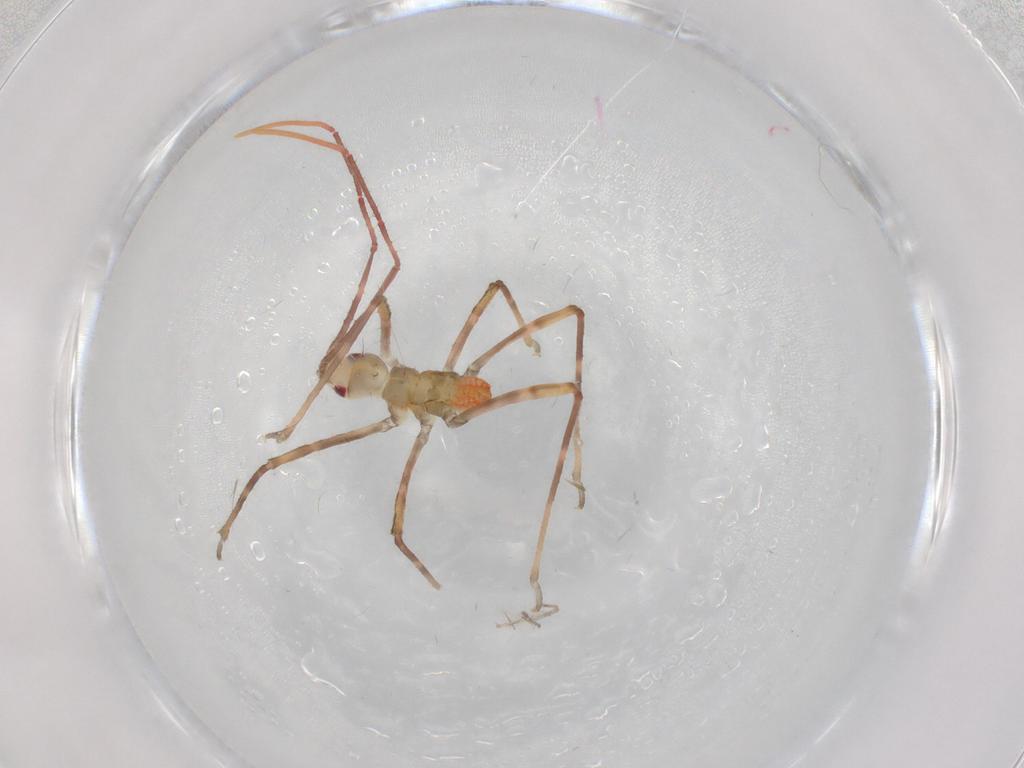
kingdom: Animalia
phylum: Arthropoda
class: Insecta
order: Hemiptera
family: Reduviidae
